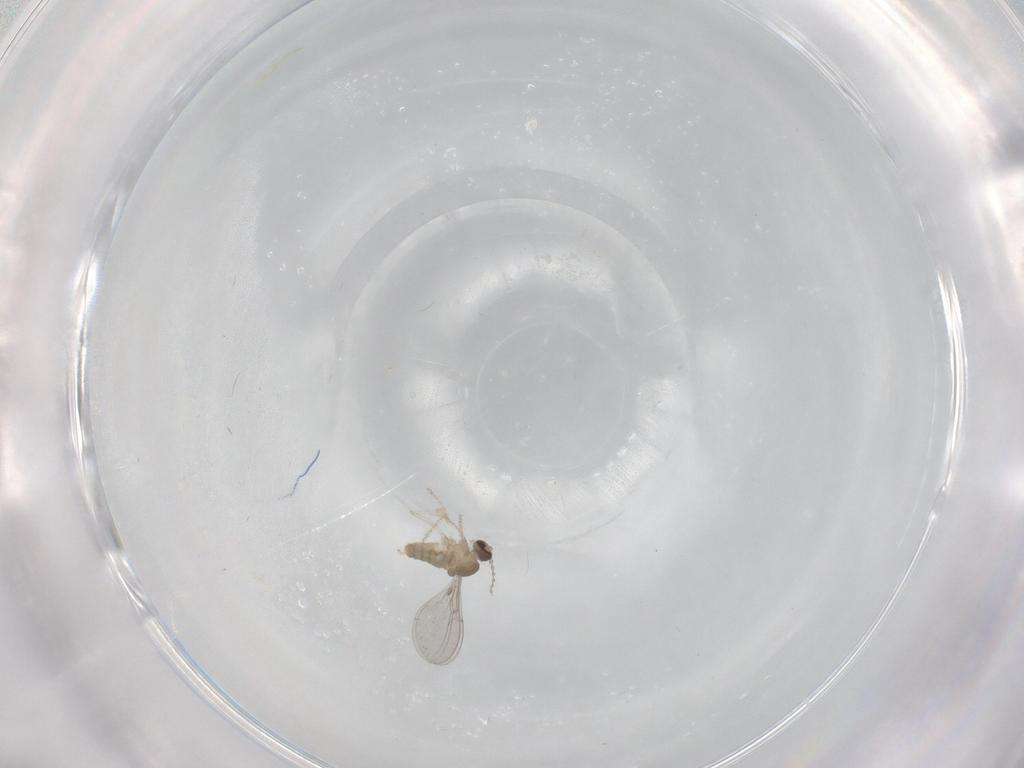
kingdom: Animalia
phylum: Arthropoda
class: Insecta
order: Diptera
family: Cecidomyiidae
